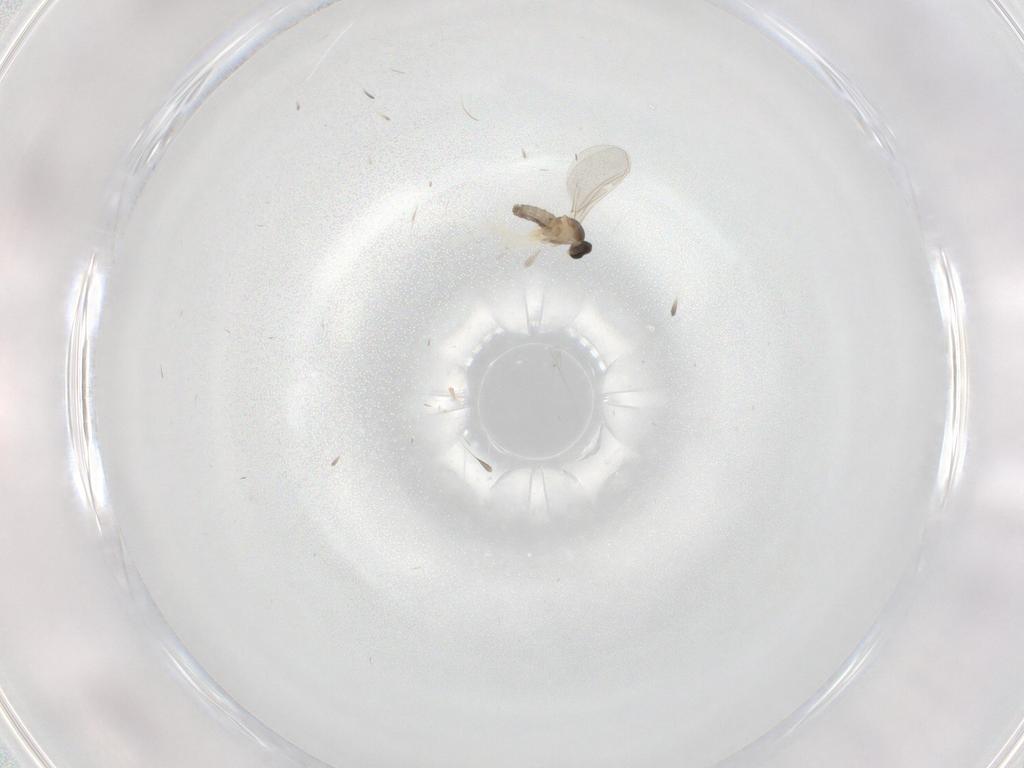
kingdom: Animalia
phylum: Arthropoda
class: Insecta
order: Diptera
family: Cecidomyiidae
